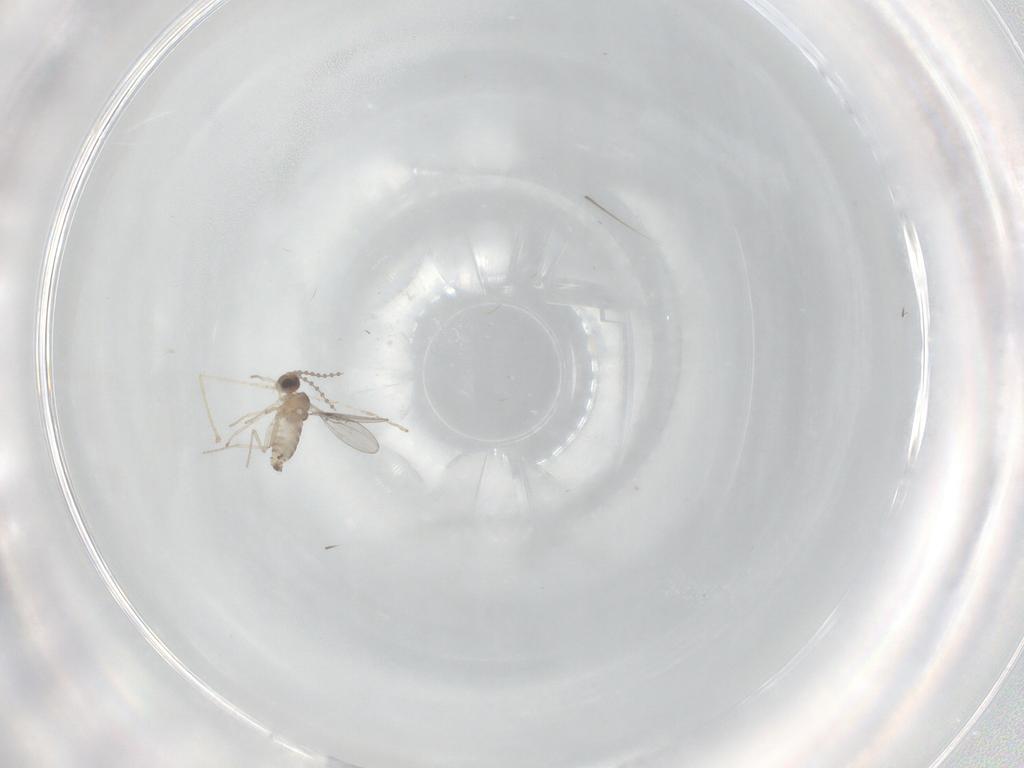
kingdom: Animalia
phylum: Arthropoda
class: Insecta
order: Diptera
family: Cecidomyiidae
